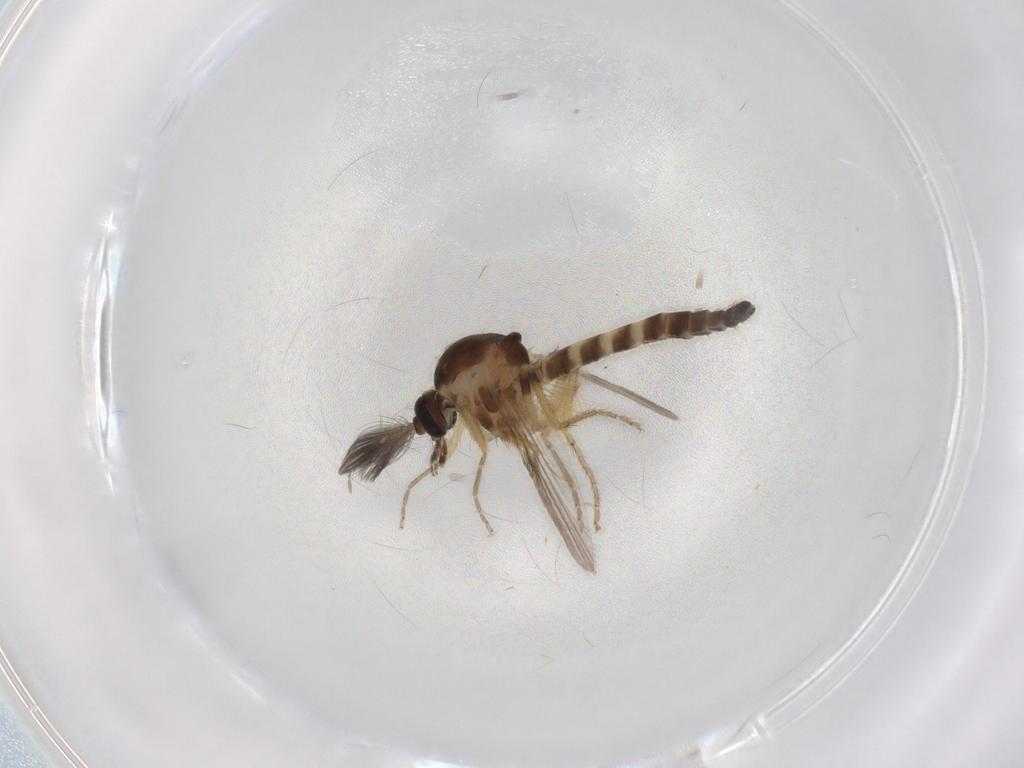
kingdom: Animalia
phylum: Arthropoda
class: Insecta
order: Diptera
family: Ceratopogonidae
